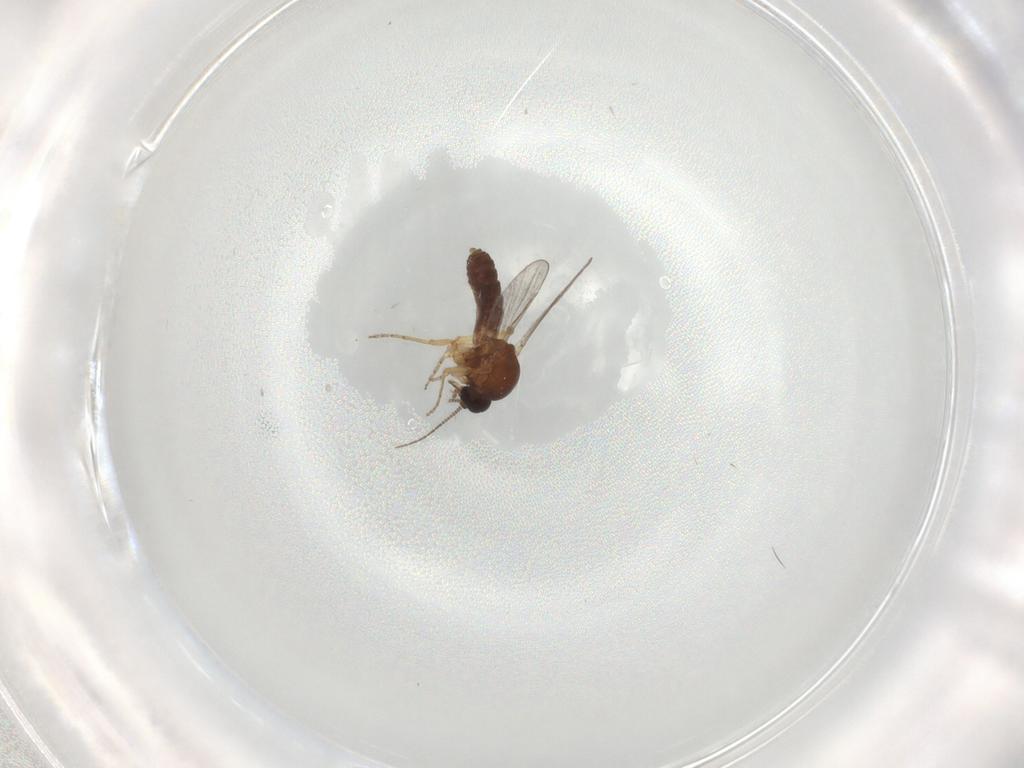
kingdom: Animalia
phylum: Arthropoda
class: Insecta
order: Diptera
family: Ceratopogonidae
